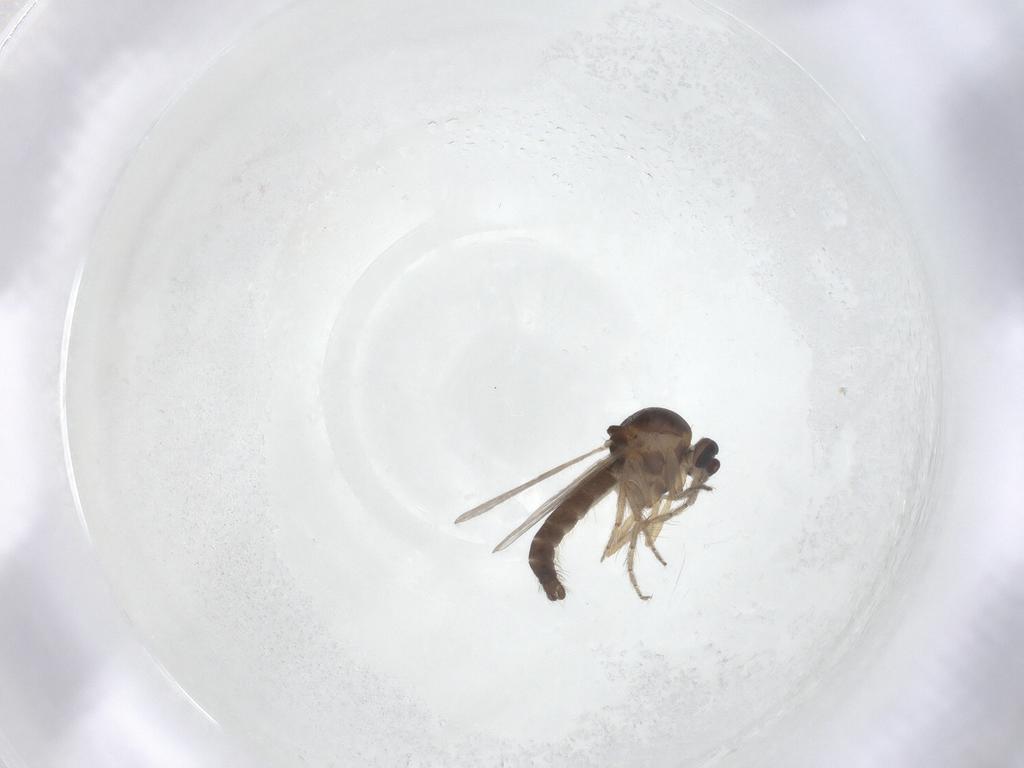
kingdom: Animalia
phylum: Arthropoda
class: Insecta
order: Diptera
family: Ceratopogonidae
